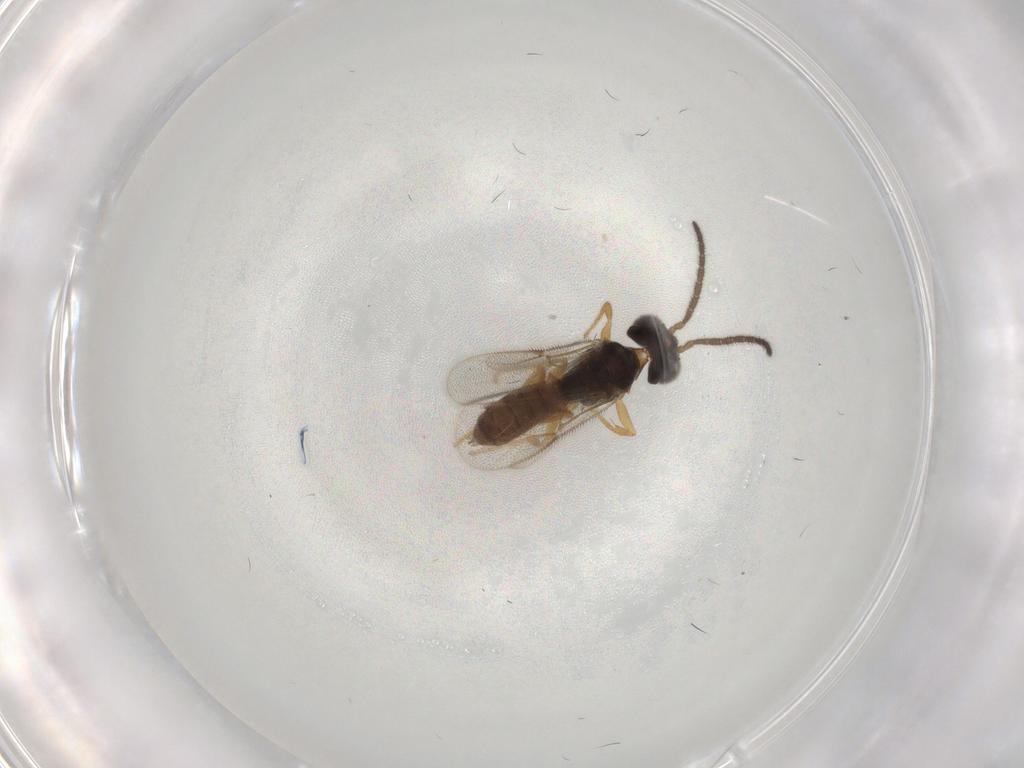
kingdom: Animalia
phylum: Arthropoda
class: Insecta
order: Hymenoptera
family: Dryinidae
